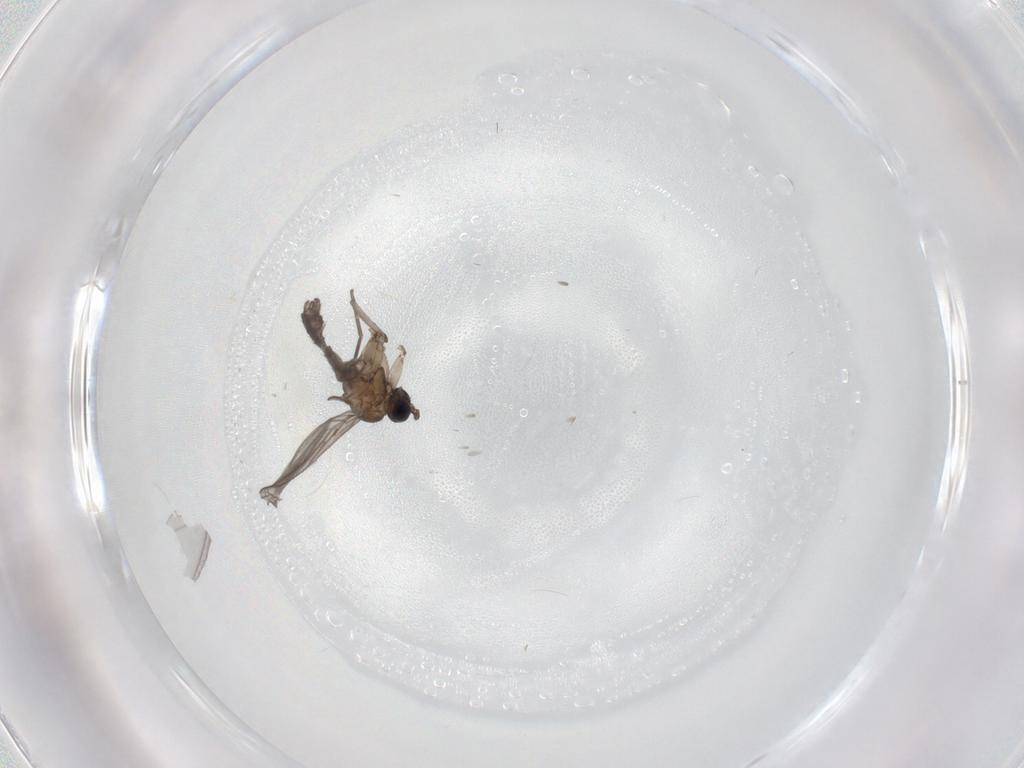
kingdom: Animalia
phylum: Arthropoda
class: Insecta
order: Diptera
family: Sciaridae
